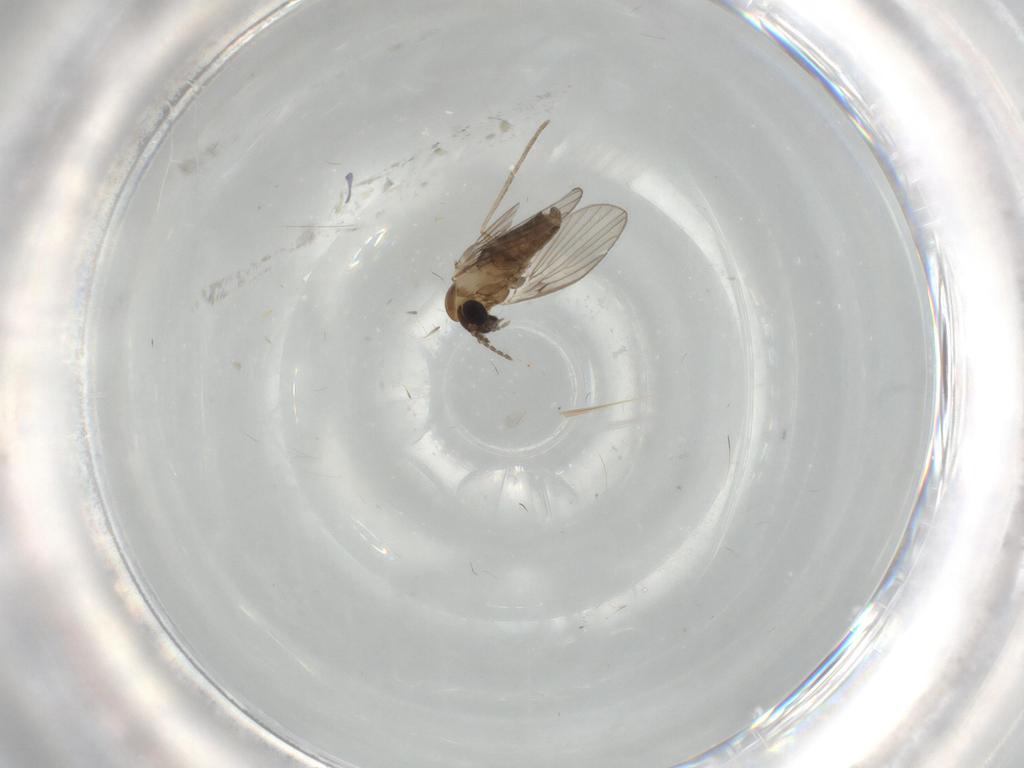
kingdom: Animalia
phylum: Arthropoda
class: Insecta
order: Diptera
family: Psychodidae
